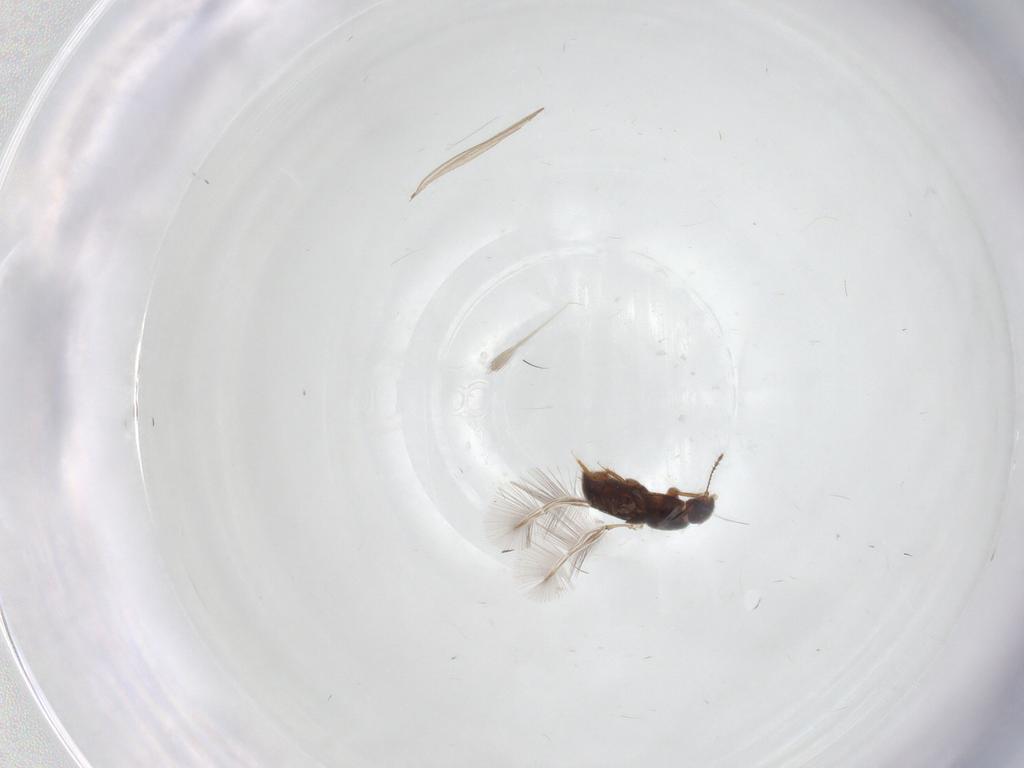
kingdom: Animalia
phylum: Arthropoda
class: Insecta
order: Coleoptera
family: Ptiliidae
